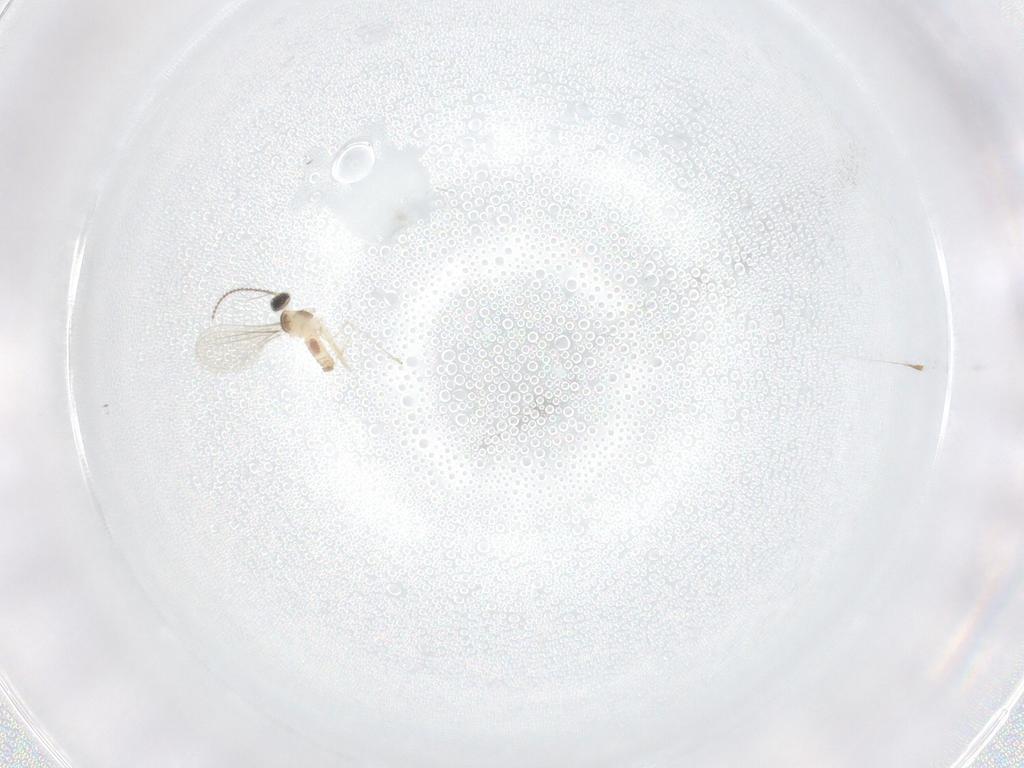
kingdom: Animalia
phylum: Arthropoda
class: Insecta
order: Diptera
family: Cecidomyiidae
